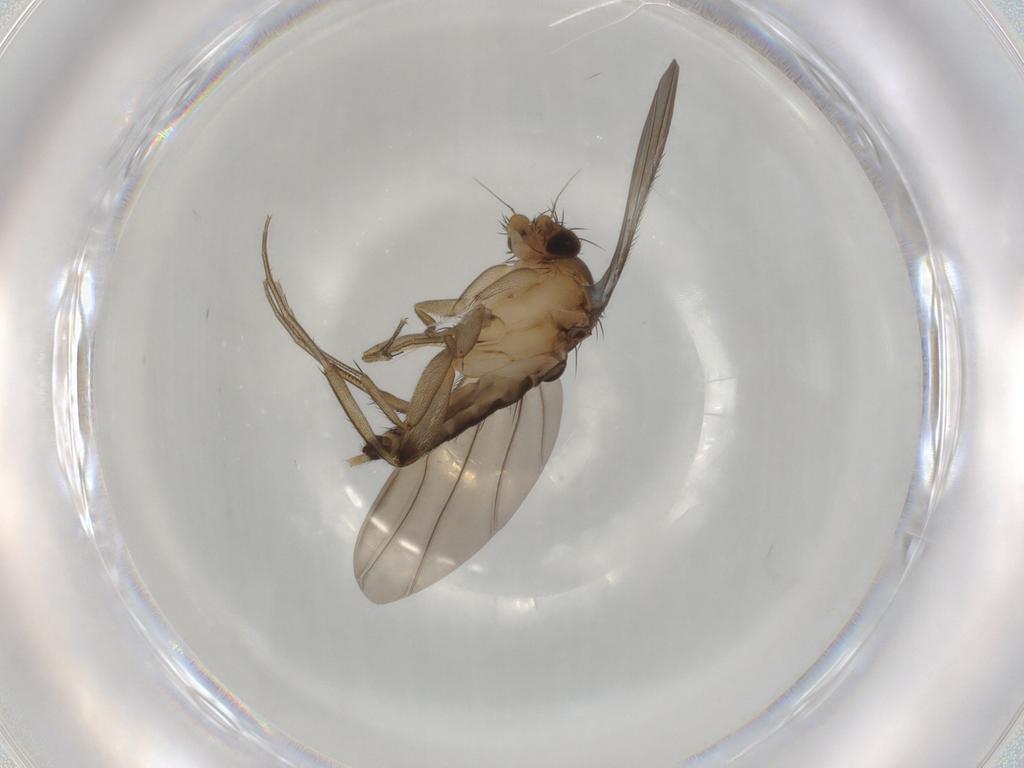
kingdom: Animalia
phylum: Arthropoda
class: Insecta
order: Diptera
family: Phoridae
